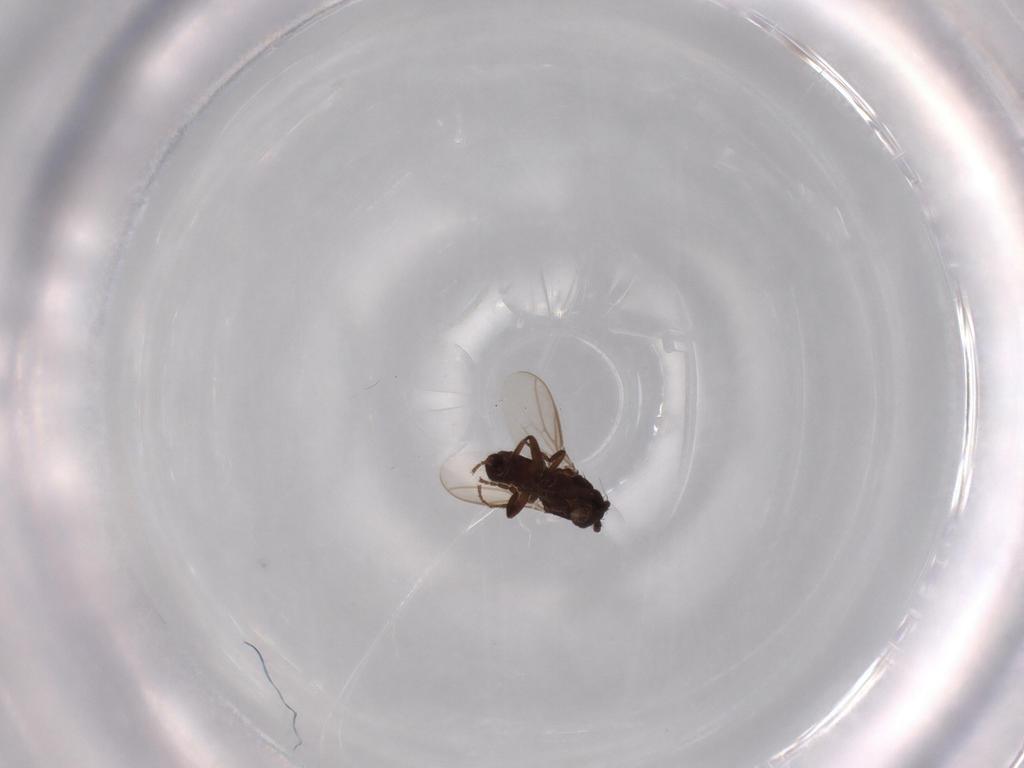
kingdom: Animalia
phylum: Arthropoda
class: Insecta
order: Diptera
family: Sphaeroceridae
